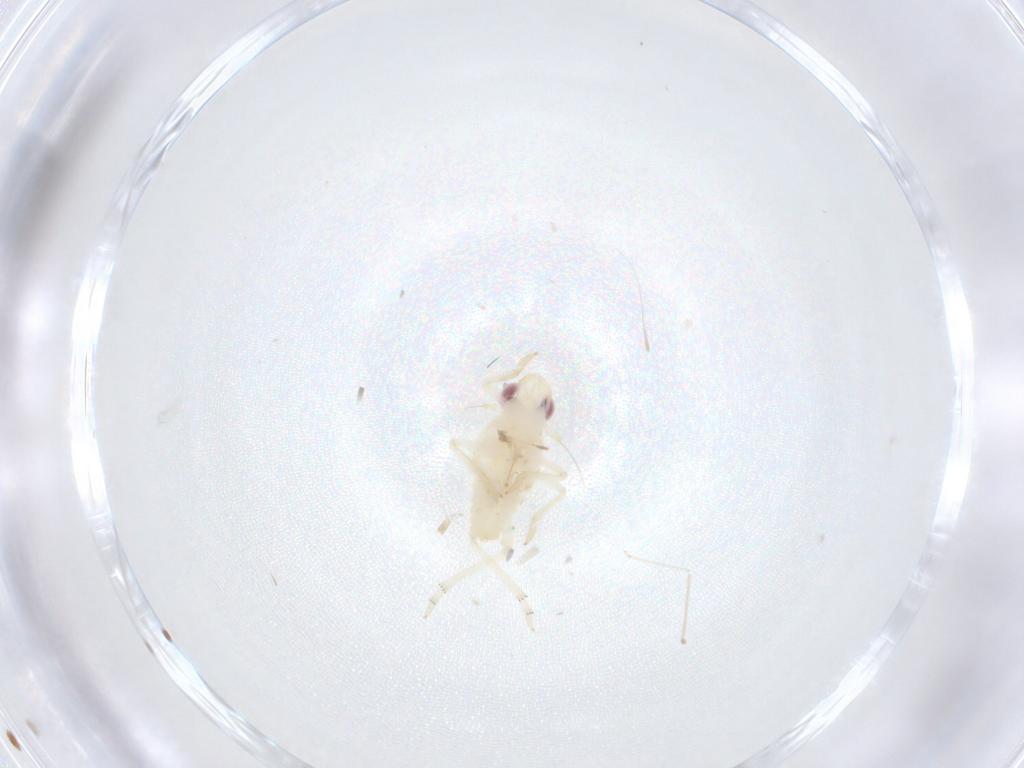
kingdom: Animalia
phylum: Arthropoda
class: Insecta
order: Hemiptera
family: Fulgoroidea_incertae_sedis
